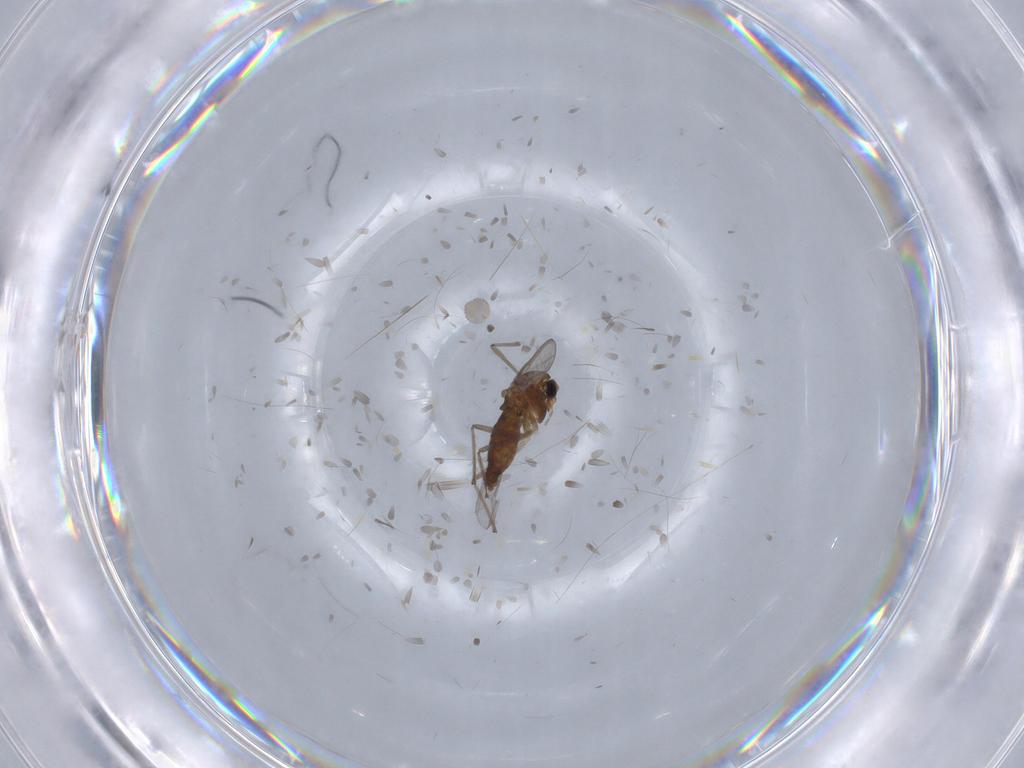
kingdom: Animalia
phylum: Arthropoda
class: Insecta
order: Diptera
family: Chironomidae
